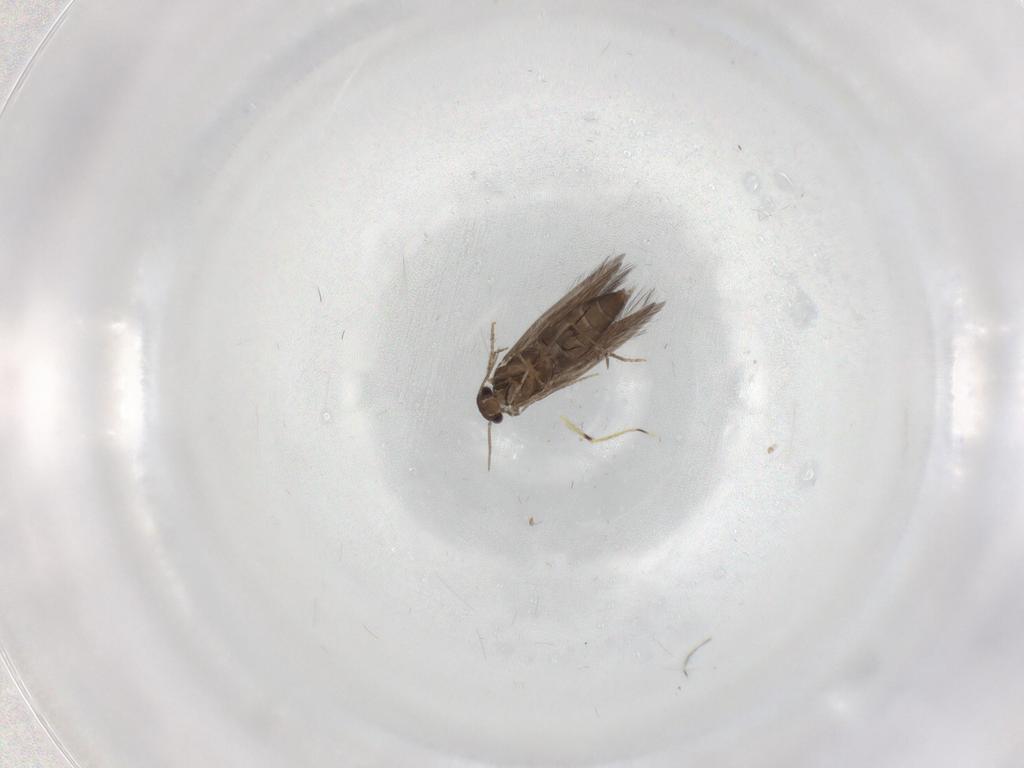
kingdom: Animalia
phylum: Arthropoda
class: Insecta
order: Trichoptera
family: Hydroptilidae
